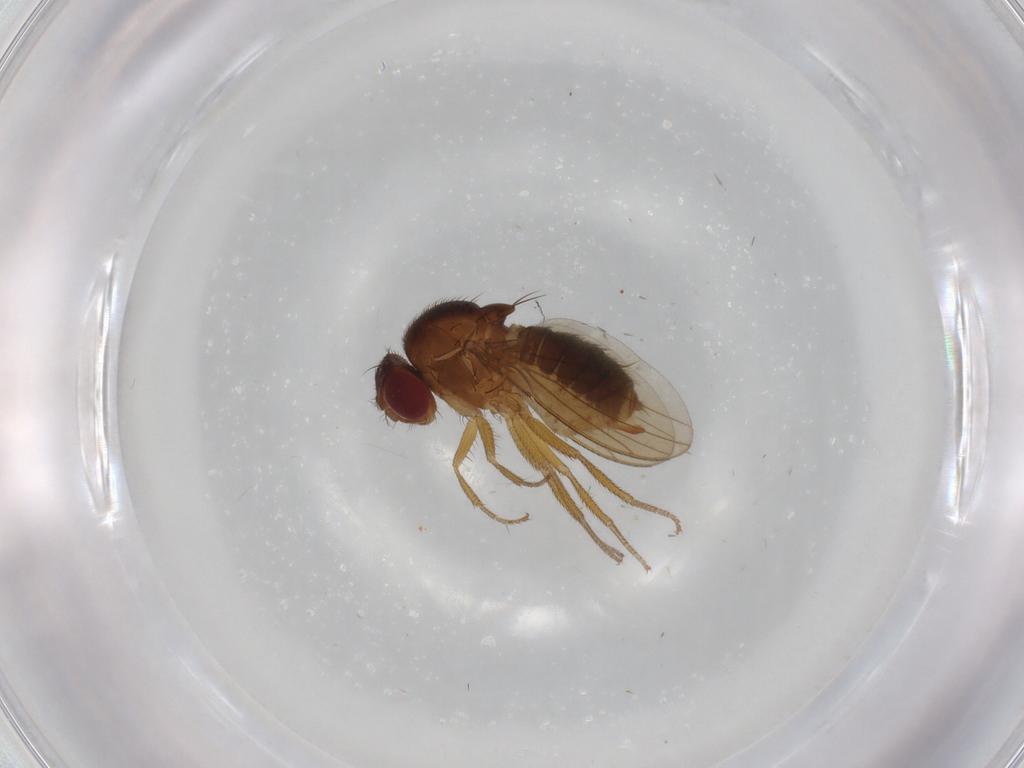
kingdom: Animalia
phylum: Arthropoda
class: Insecta
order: Diptera
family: Drosophilidae
